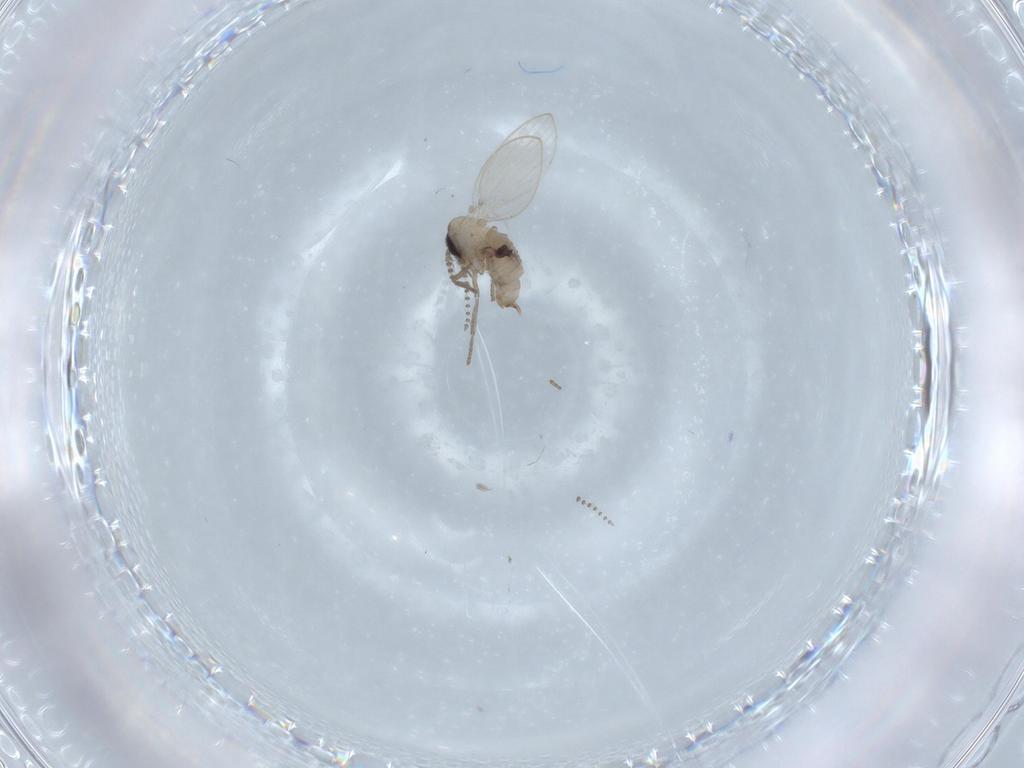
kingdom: Animalia
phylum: Arthropoda
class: Insecta
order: Diptera
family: Psychodidae
